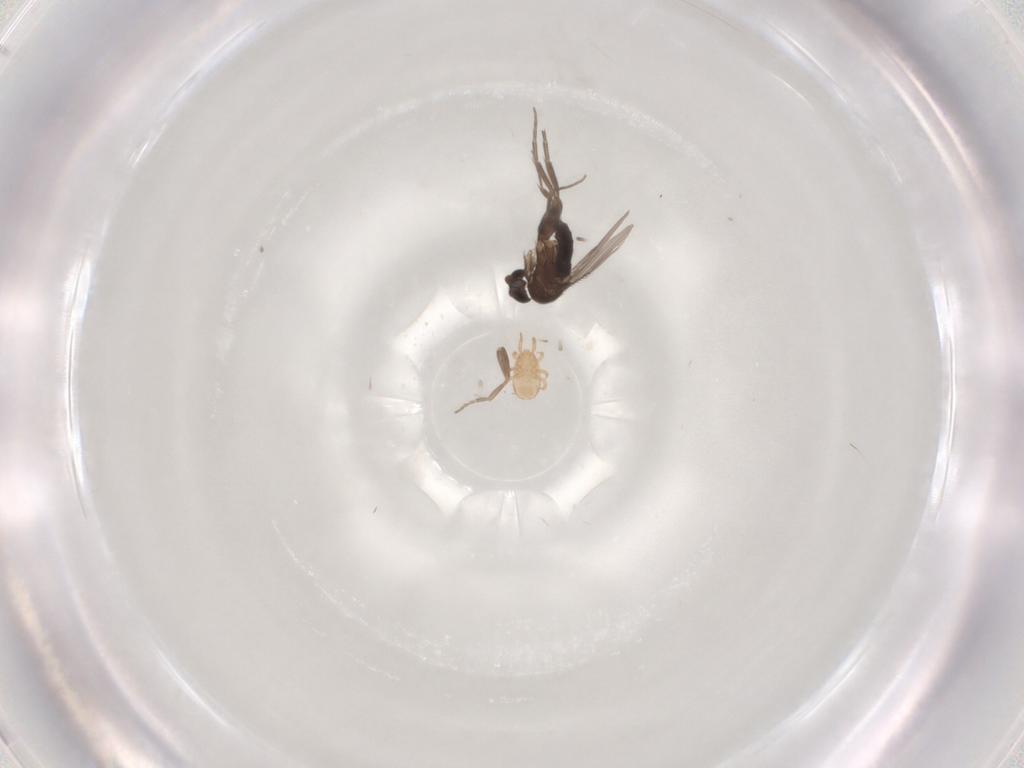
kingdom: Animalia
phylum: Arthropoda
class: Insecta
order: Diptera
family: Phoridae
